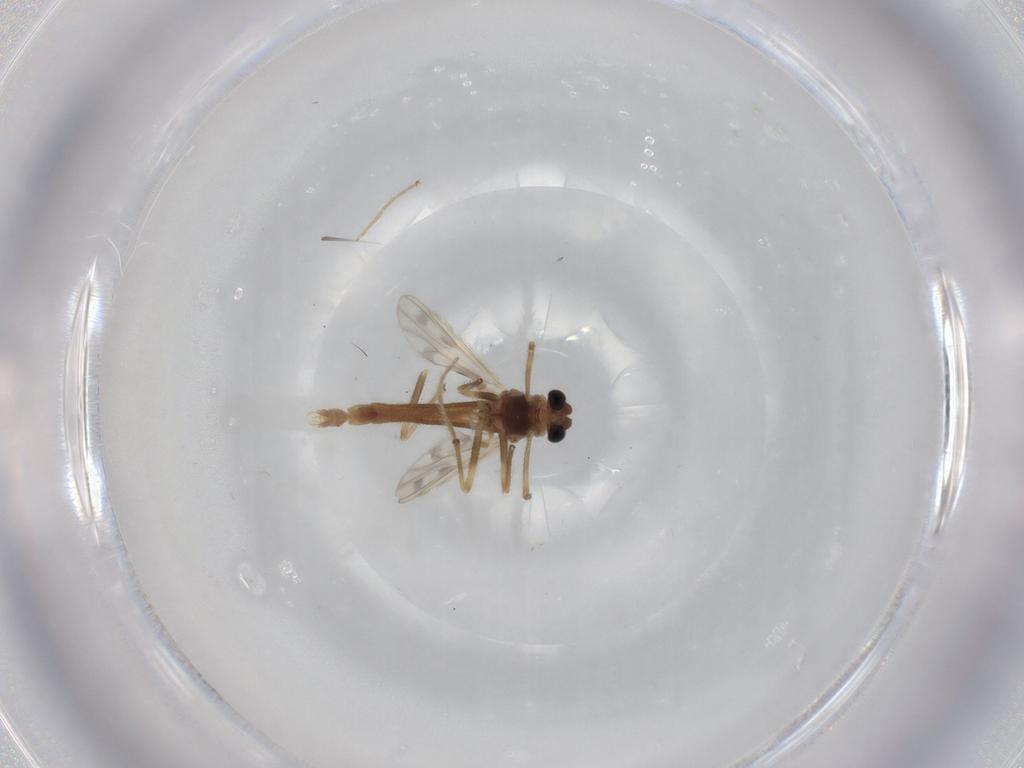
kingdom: Animalia
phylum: Arthropoda
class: Insecta
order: Diptera
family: Chironomidae
